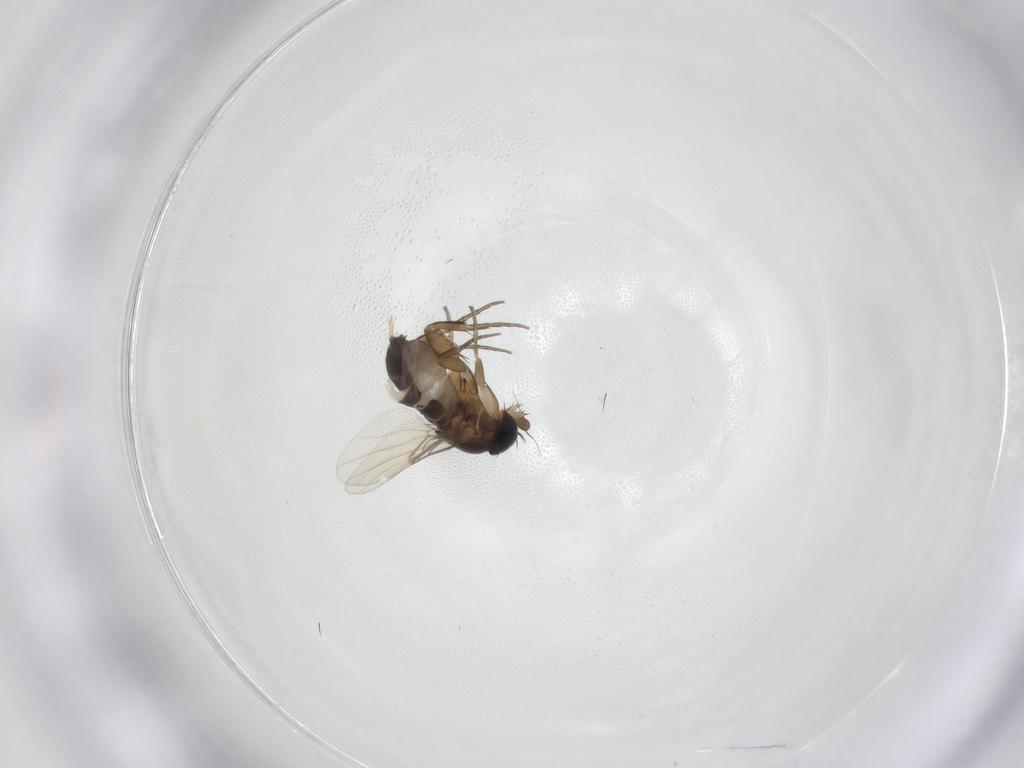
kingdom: Animalia
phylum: Arthropoda
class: Insecta
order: Diptera
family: Phoridae
